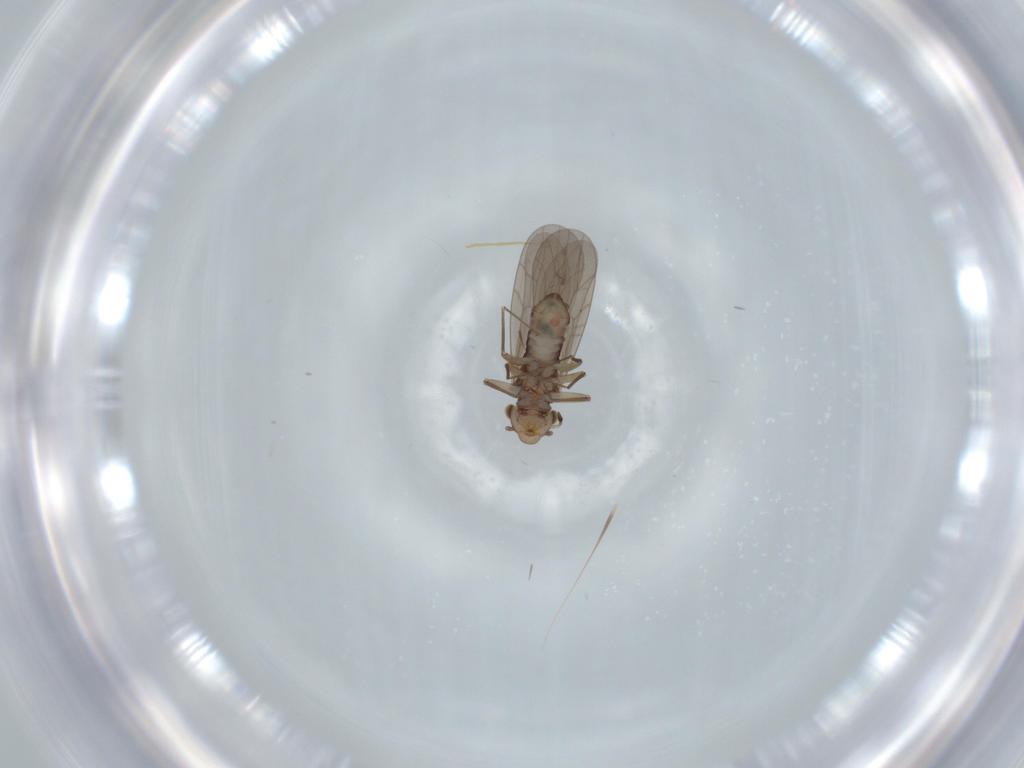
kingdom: Animalia
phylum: Arthropoda
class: Insecta
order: Psocodea
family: Lepidopsocidae
